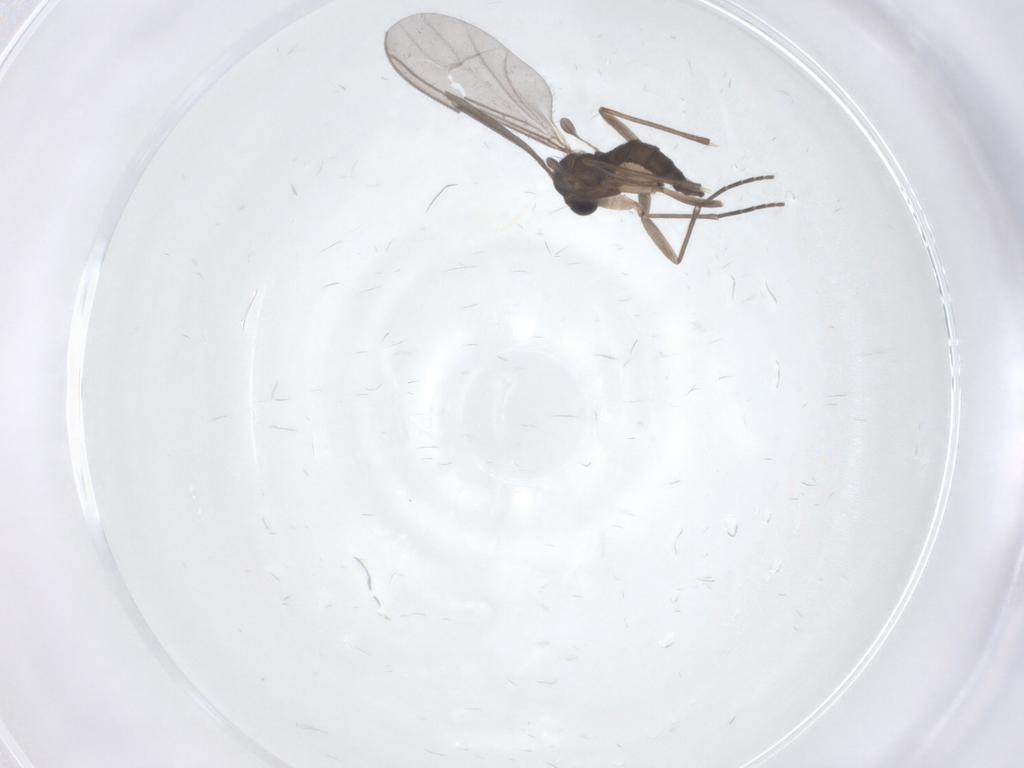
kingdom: Animalia
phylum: Arthropoda
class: Insecta
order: Diptera
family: Sciaridae
